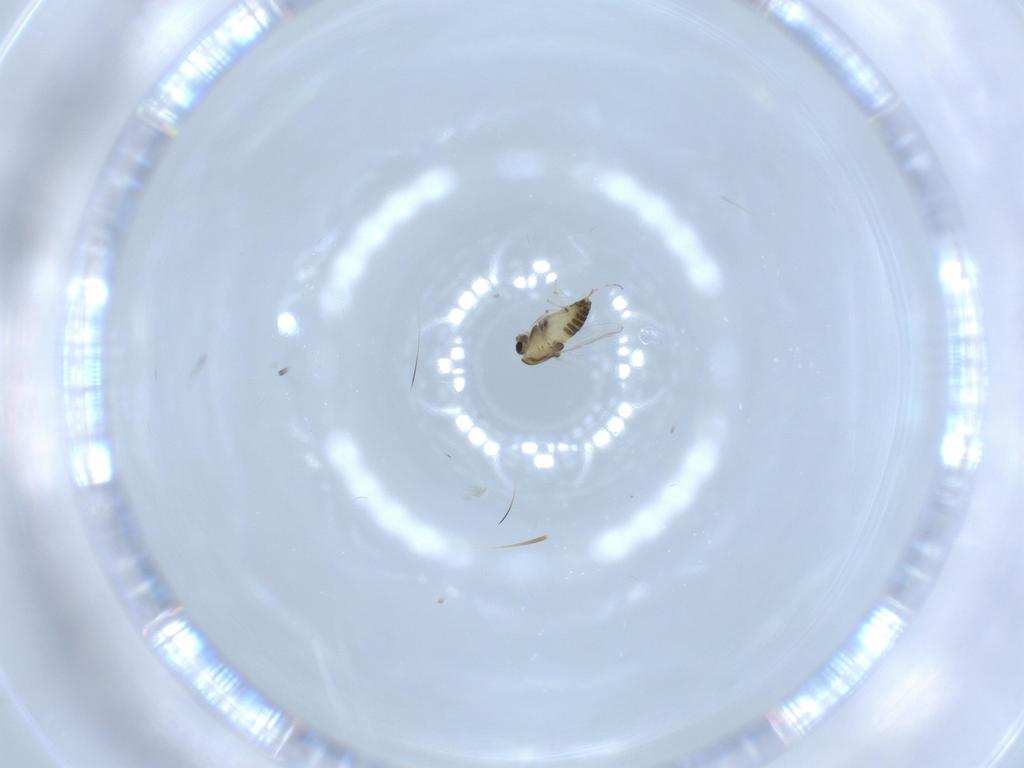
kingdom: Animalia
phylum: Arthropoda
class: Insecta
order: Diptera
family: Chironomidae
